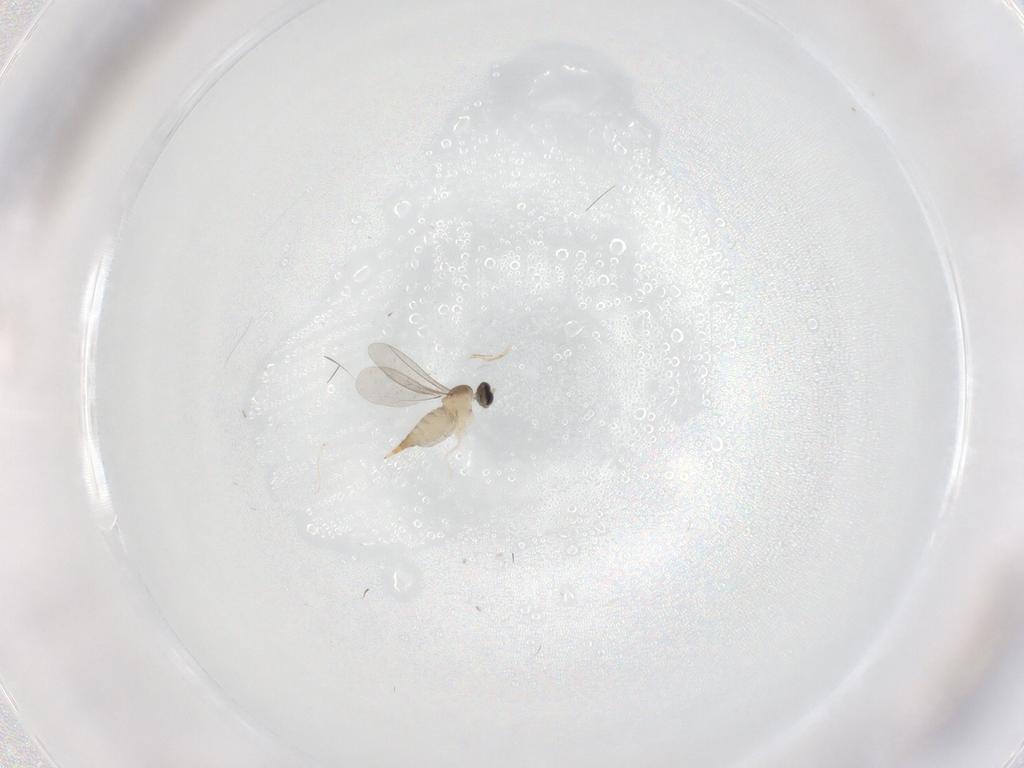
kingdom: Animalia
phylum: Arthropoda
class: Insecta
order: Diptera
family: Cecidomyiidae
